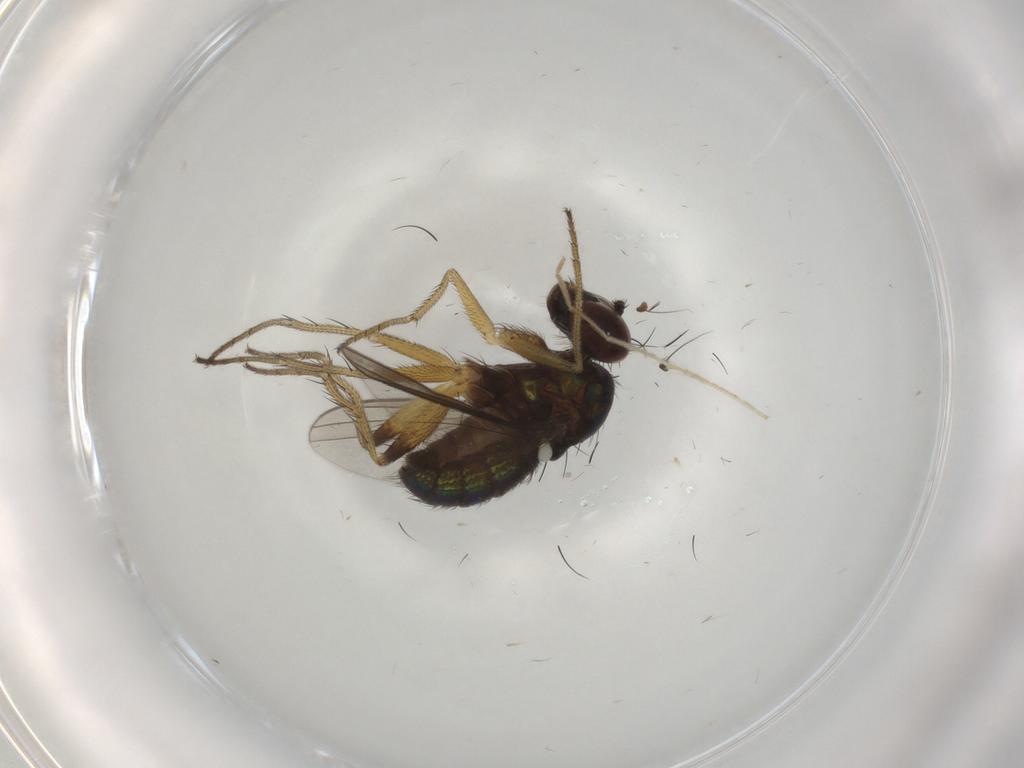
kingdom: Animalia
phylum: Arthropoda
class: Insecta
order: Diptera
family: Dolichopodidae
